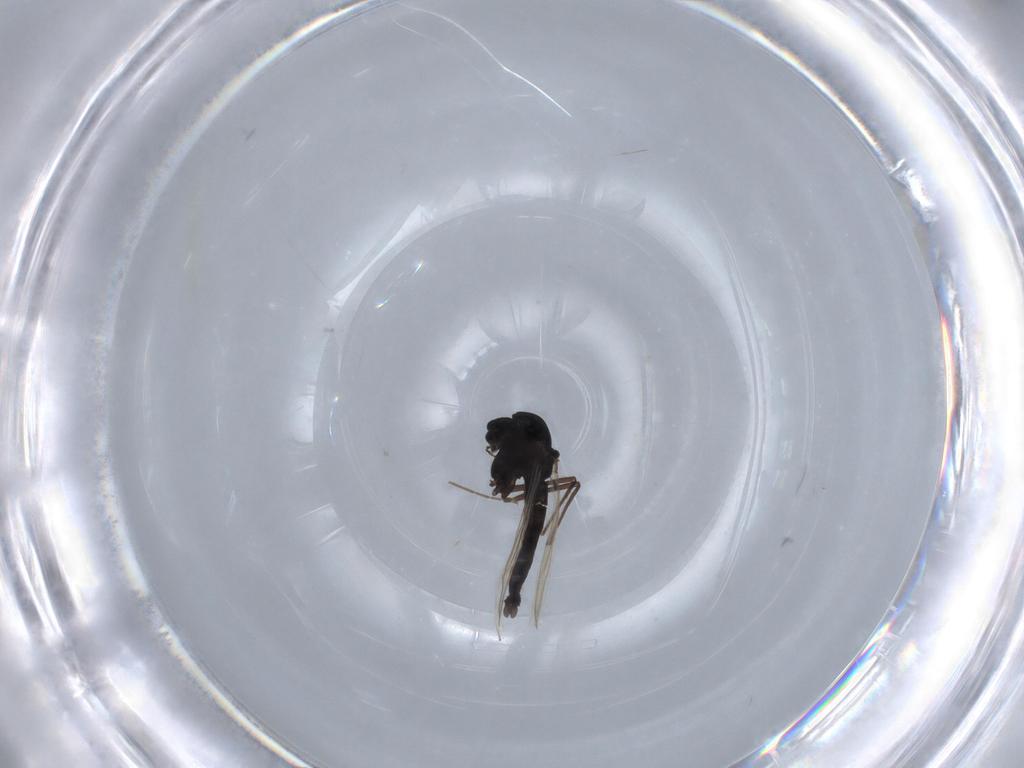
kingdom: Animalia
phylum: Arthropoda
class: Insecta
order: Diptera
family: Chironomidae
